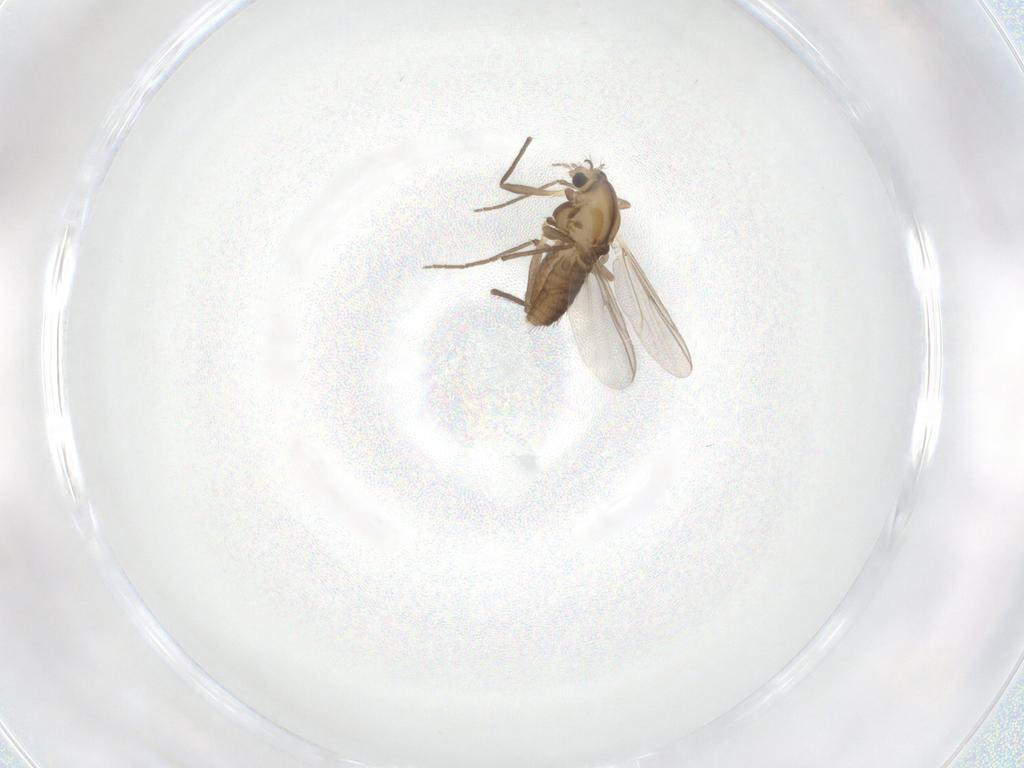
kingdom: Animalia
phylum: Arthropoda
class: Insecta
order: Diptera
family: Chironomidae
